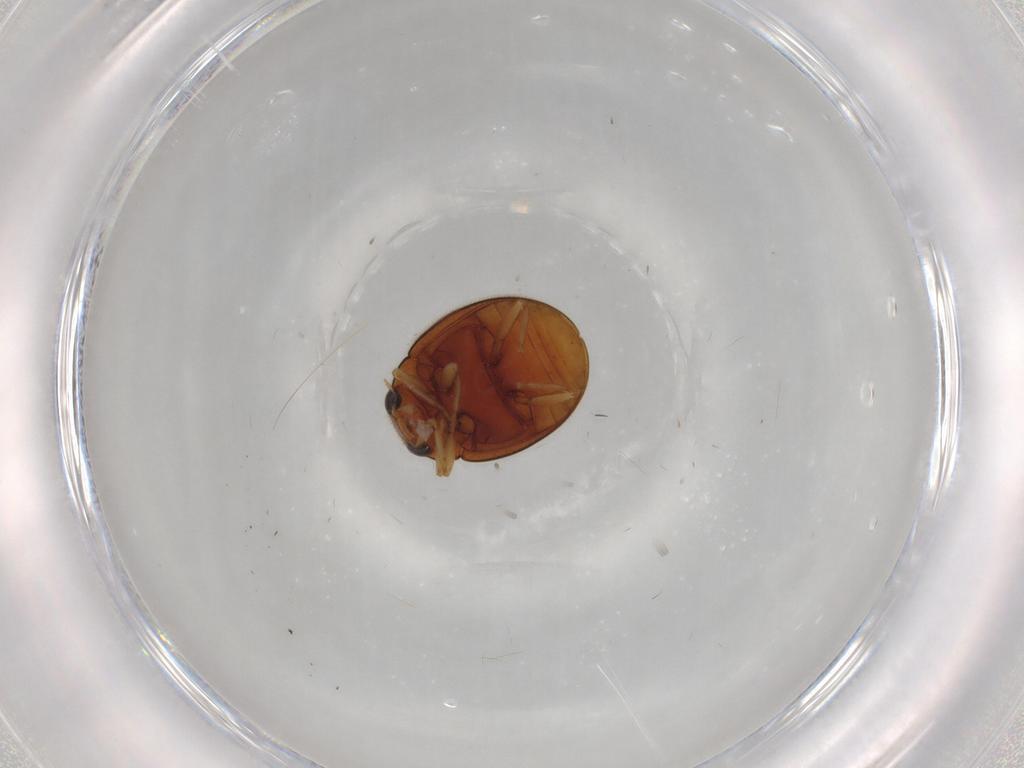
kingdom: Animalia
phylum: Arthropoda
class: Insecta
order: Coleoptera
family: Coccinellidae
